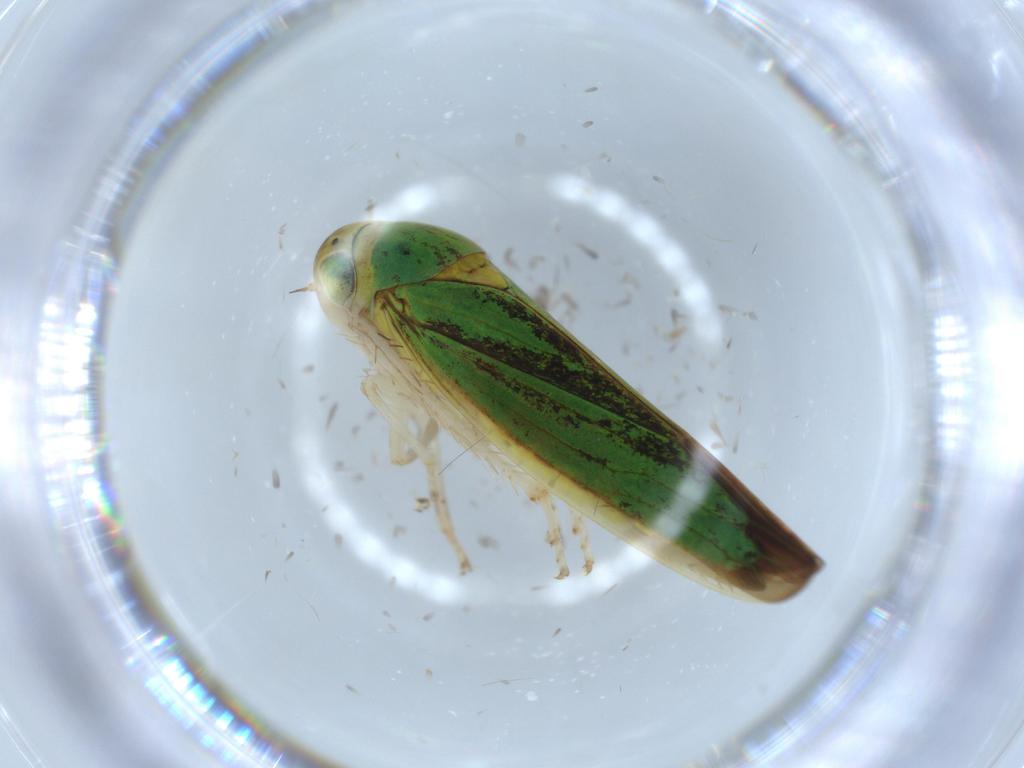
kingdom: Animalia
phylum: Arthropoda
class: Insecta
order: Hemiptera
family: Cicadellidae
